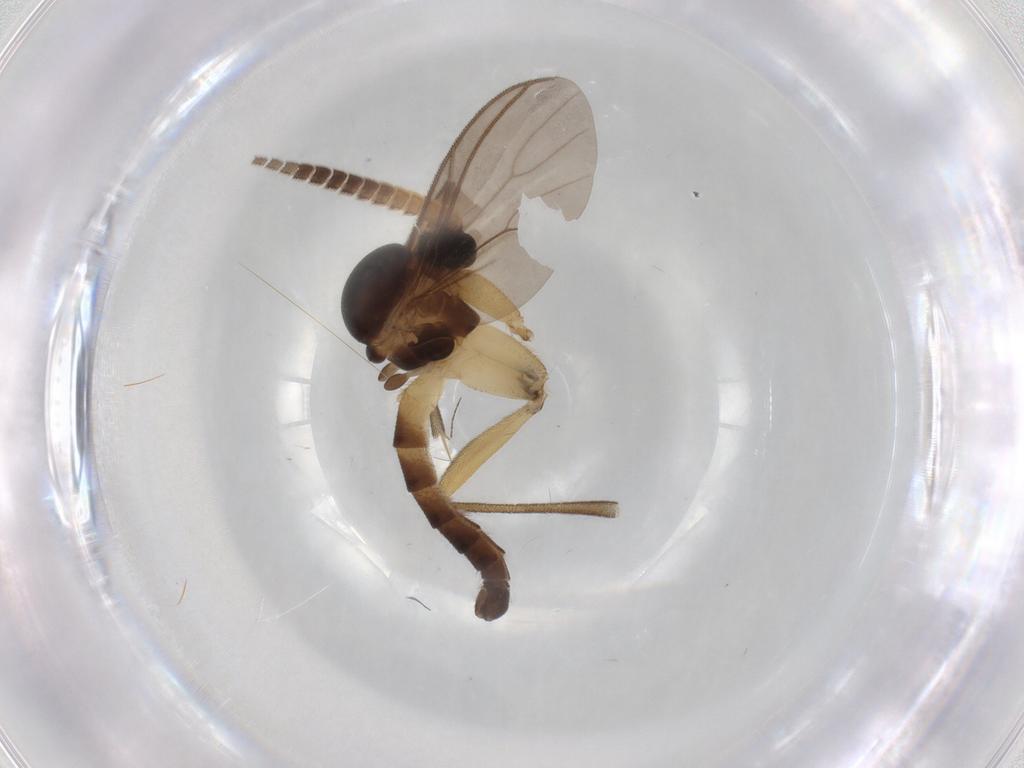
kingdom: Animalia
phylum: Arthropoda
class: Insecta
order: Diptera
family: Mycetophilidae
